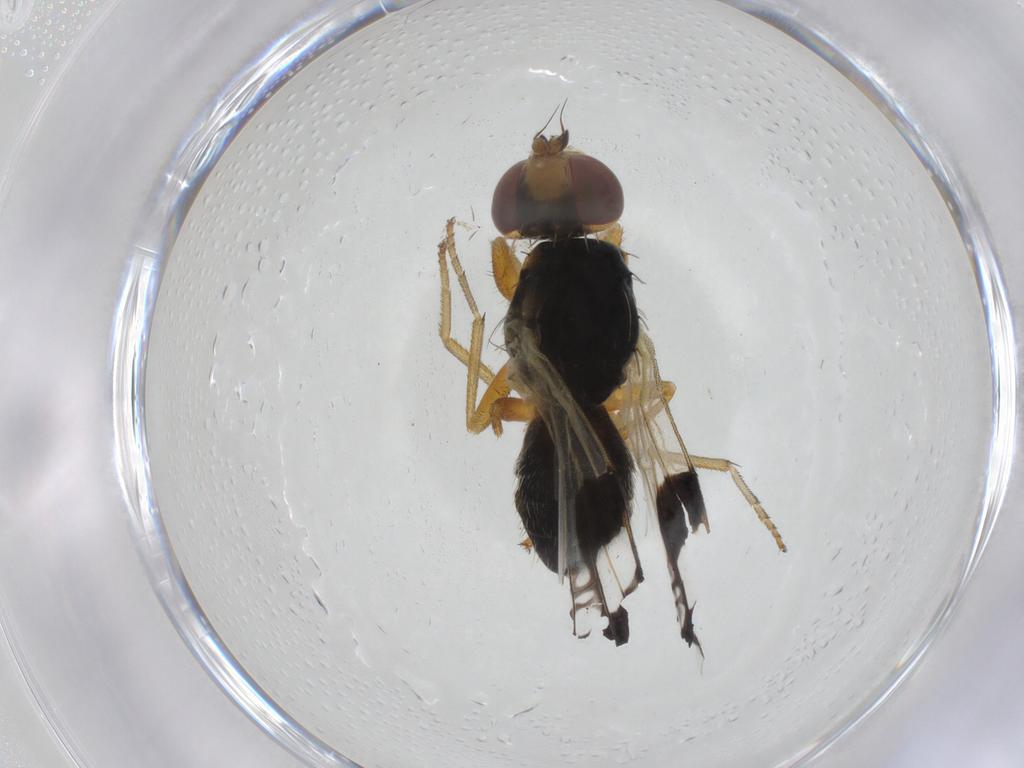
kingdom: Animalia
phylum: Arthropoda
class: Insecta
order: Diptera
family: Tephritidae
